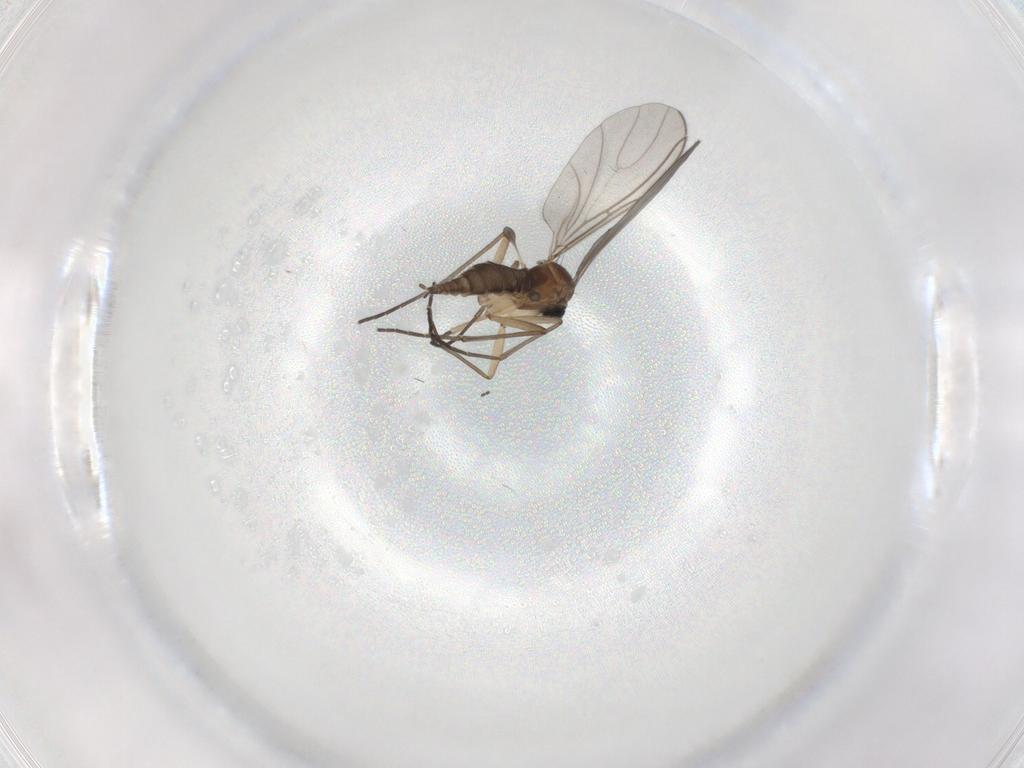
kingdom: Animalia
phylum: Arthropoda
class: Insecta
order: Diptera
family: Sciaridae
